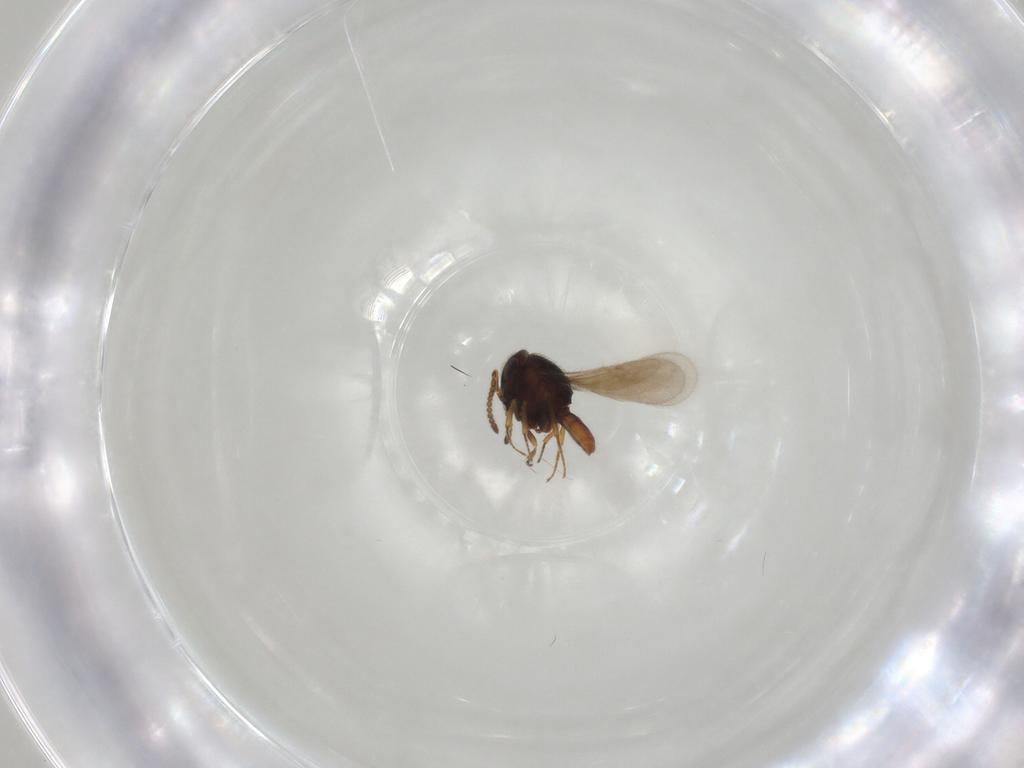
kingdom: Animalia
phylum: Arthropoda
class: Insecta
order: Hymenoptera
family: Scelionidae
